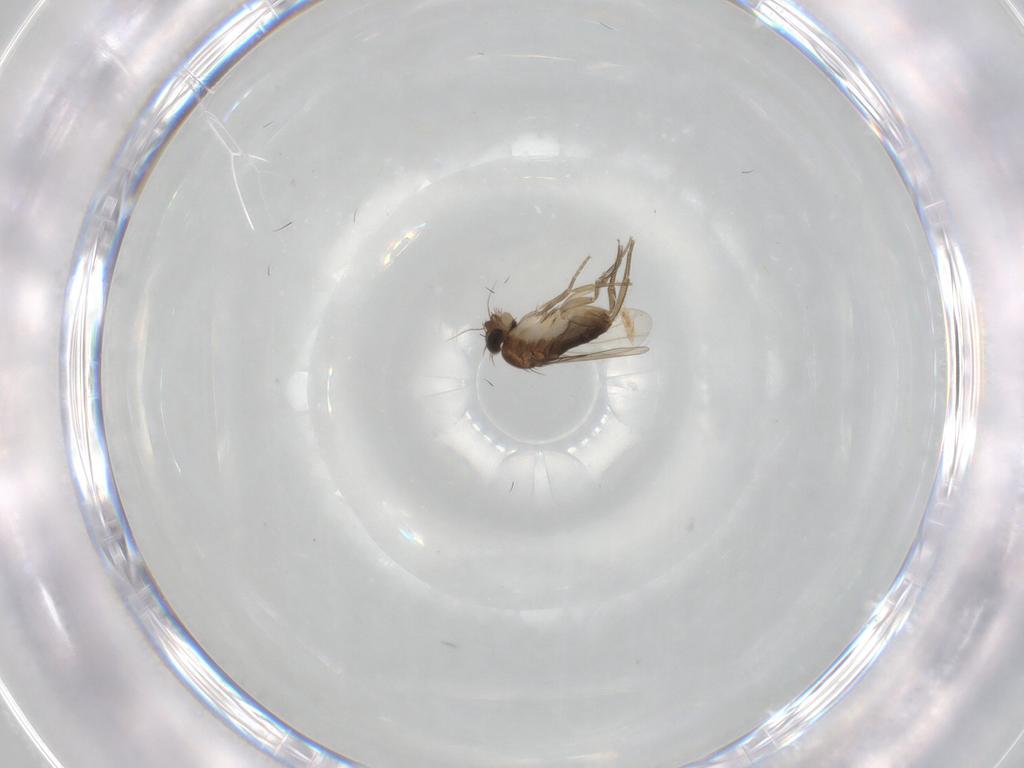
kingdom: Animalia
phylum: Arthropoda
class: Insecta
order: Diptera
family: Phoridae
